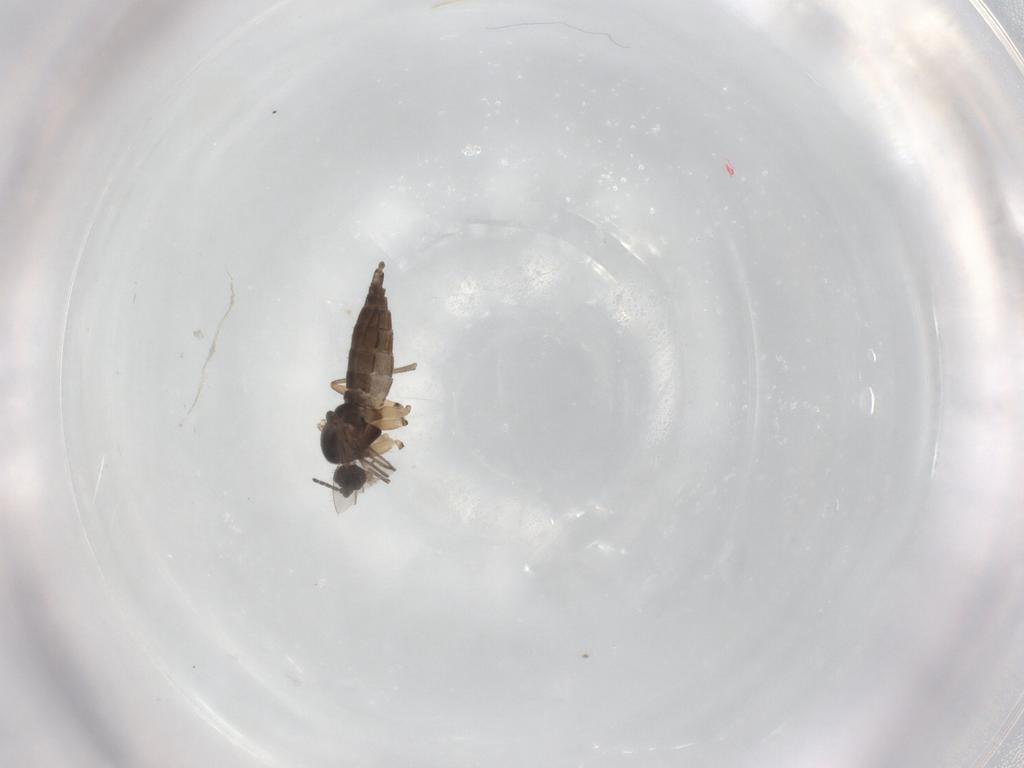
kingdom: Animalia
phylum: Arthropoda
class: Insecta
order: Diptera
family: Sciaridae
